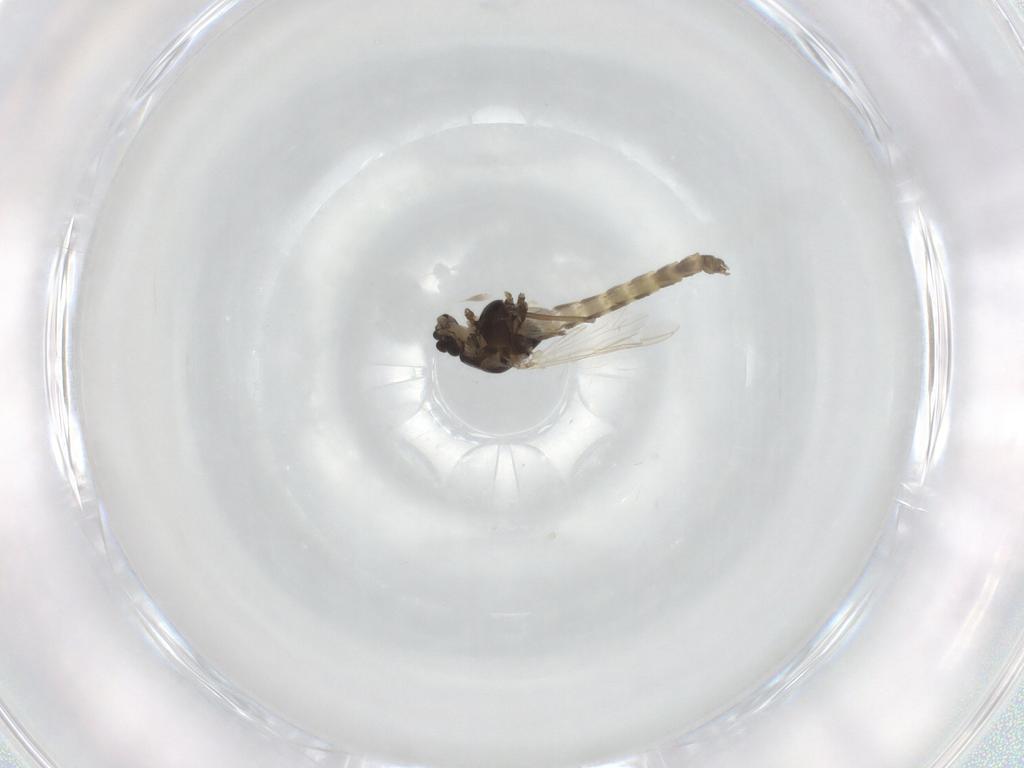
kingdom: Animalia
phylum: Arthropoda
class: Insecta
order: Diptera
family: Chironomidae
